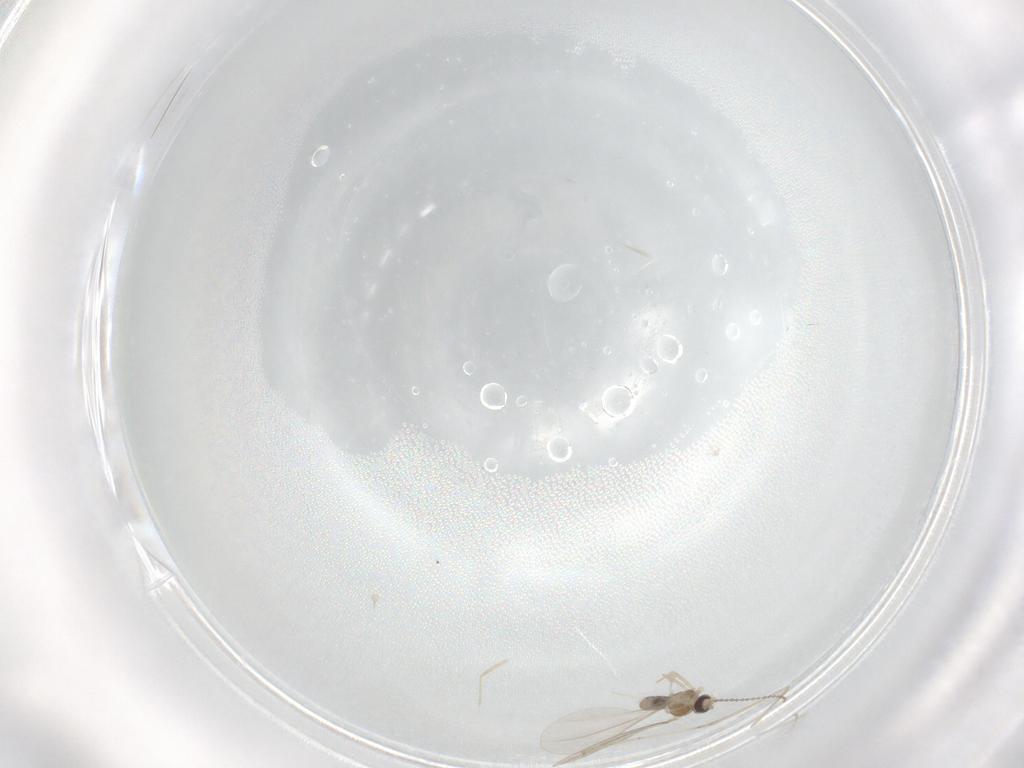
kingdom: Animalia
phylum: Arthropoda
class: Insecta
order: Diptera
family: Cecidomyiidae
